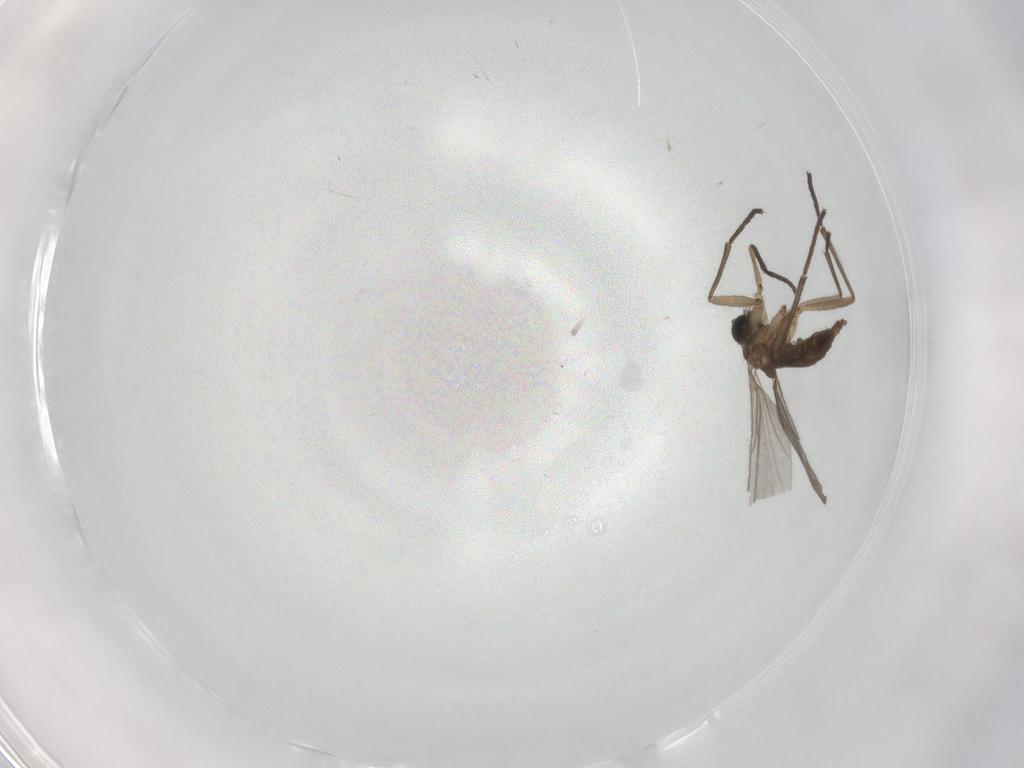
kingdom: Animalia
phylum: Arthropoda
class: Insecta
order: Diptera
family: Sciaridae
